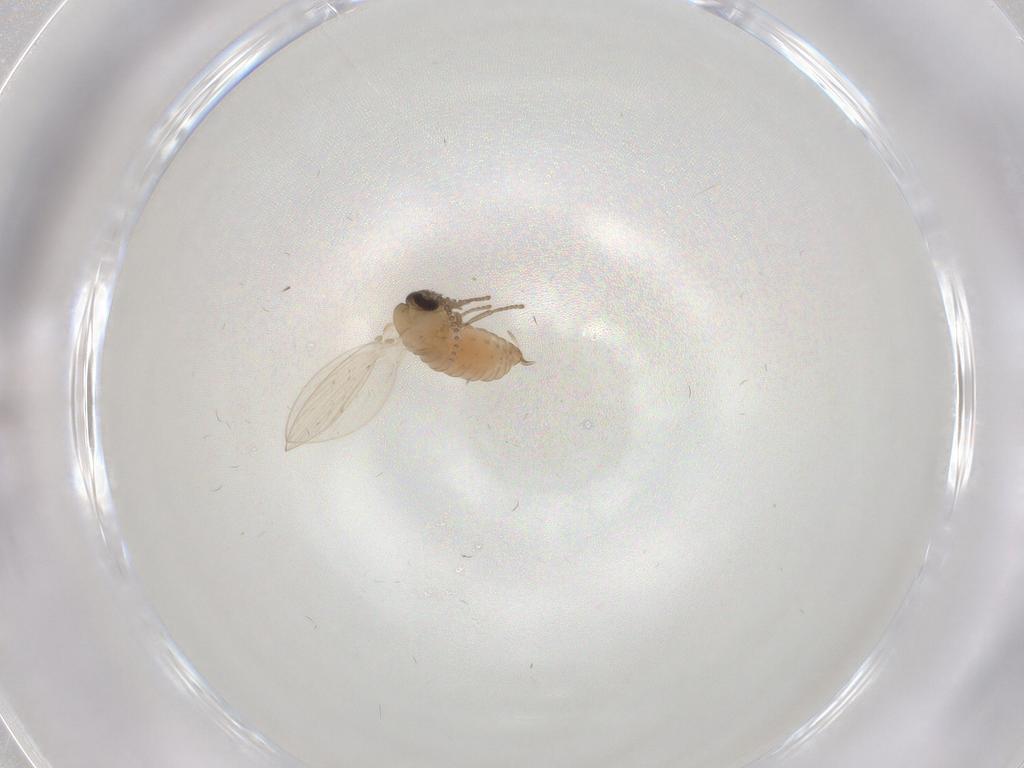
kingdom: Animalia
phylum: Arthropoda
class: Insecta
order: Diptera
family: Psychodidae
